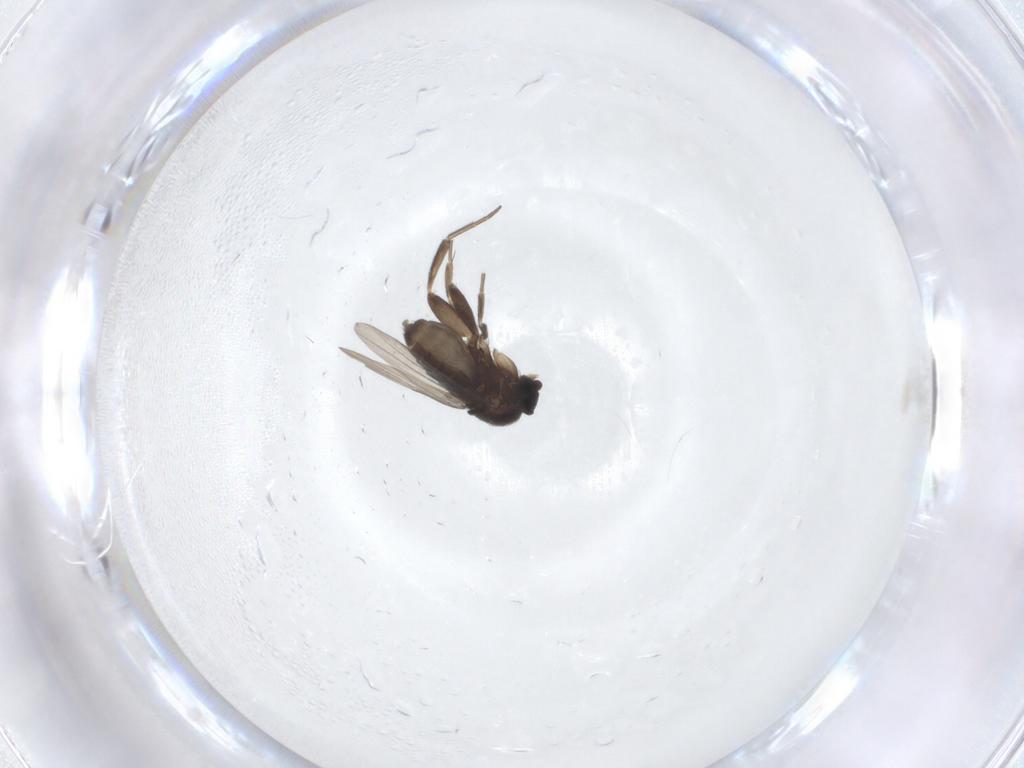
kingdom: Animalia
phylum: Arthropoda
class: Insecta
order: Diptera
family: Phoridae
